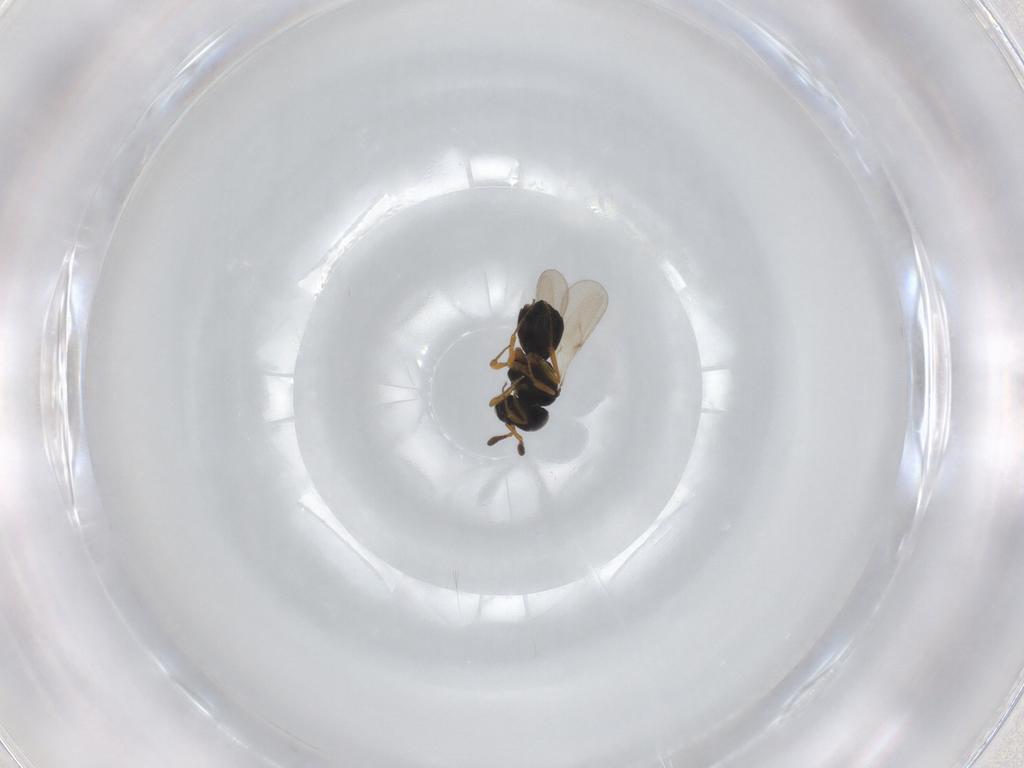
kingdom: Animalia
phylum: Arthropoda
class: Insecta
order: Hymenoptera
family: Scelionidae
